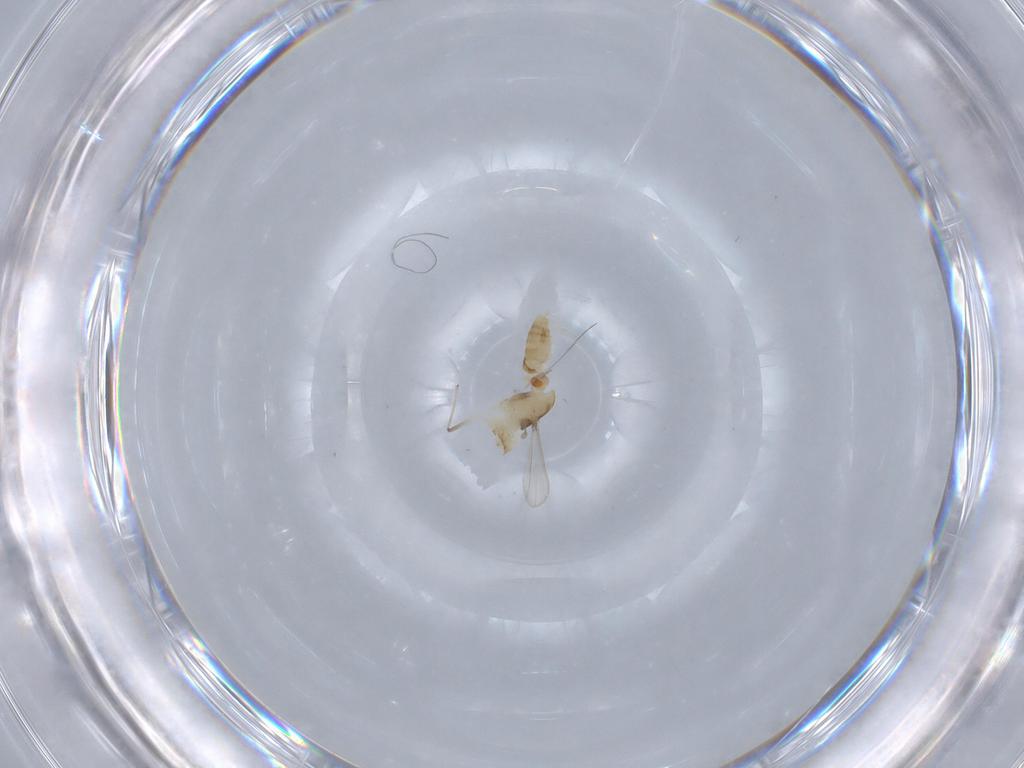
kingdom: Animalia
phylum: Arthropoda
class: Insecta
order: Diptera
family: Chironomidae
